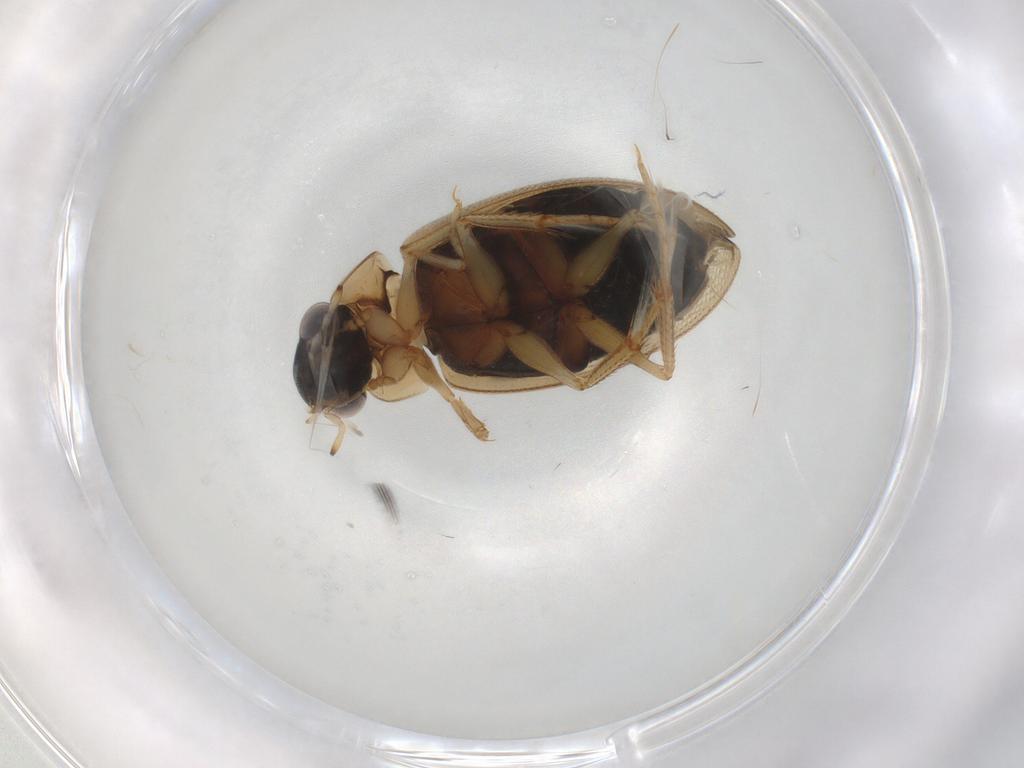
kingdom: Animalia
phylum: Arthropoda
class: Insecta
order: Coleoptera
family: Hydrophilidae
